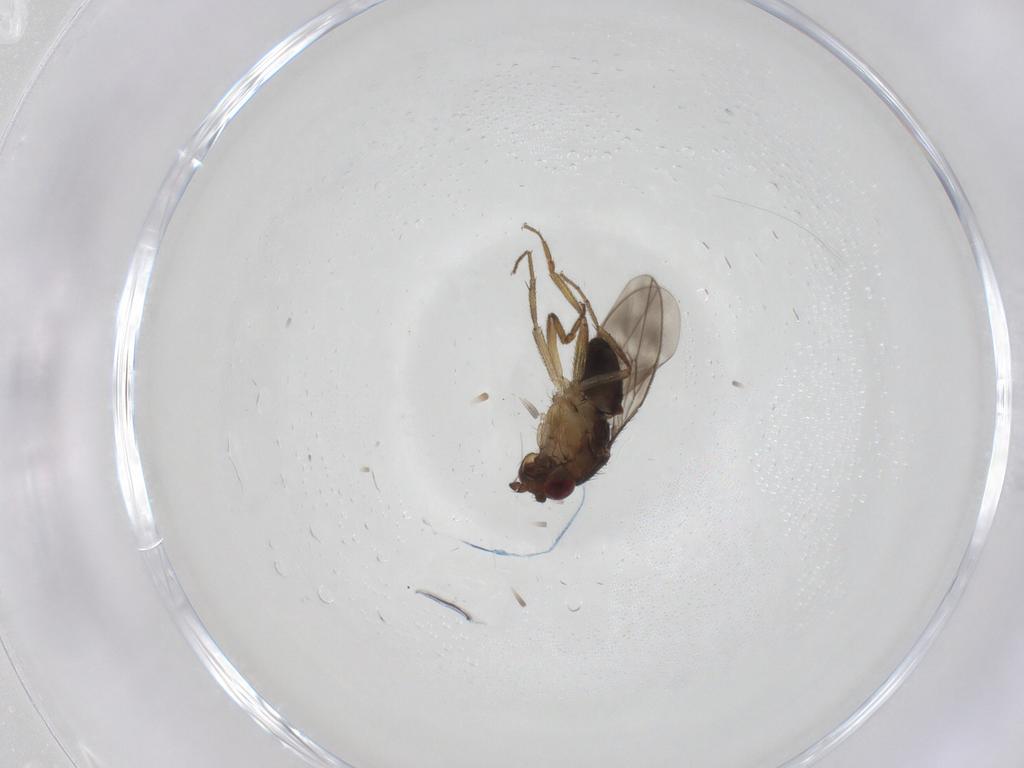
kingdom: Animalia
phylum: Arthropoda
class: Insecta
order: Diptera
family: Sphaeroceridae
